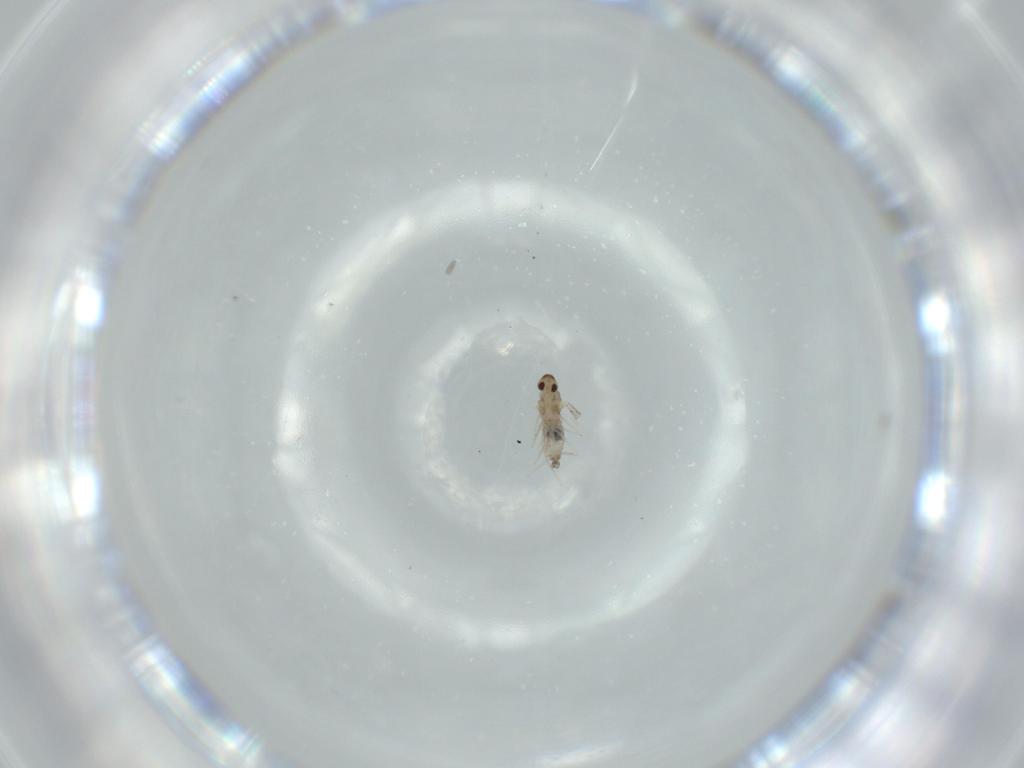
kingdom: Animalia
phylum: Arthropoda
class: Insecta
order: Diptera
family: Cecidomyiidae
